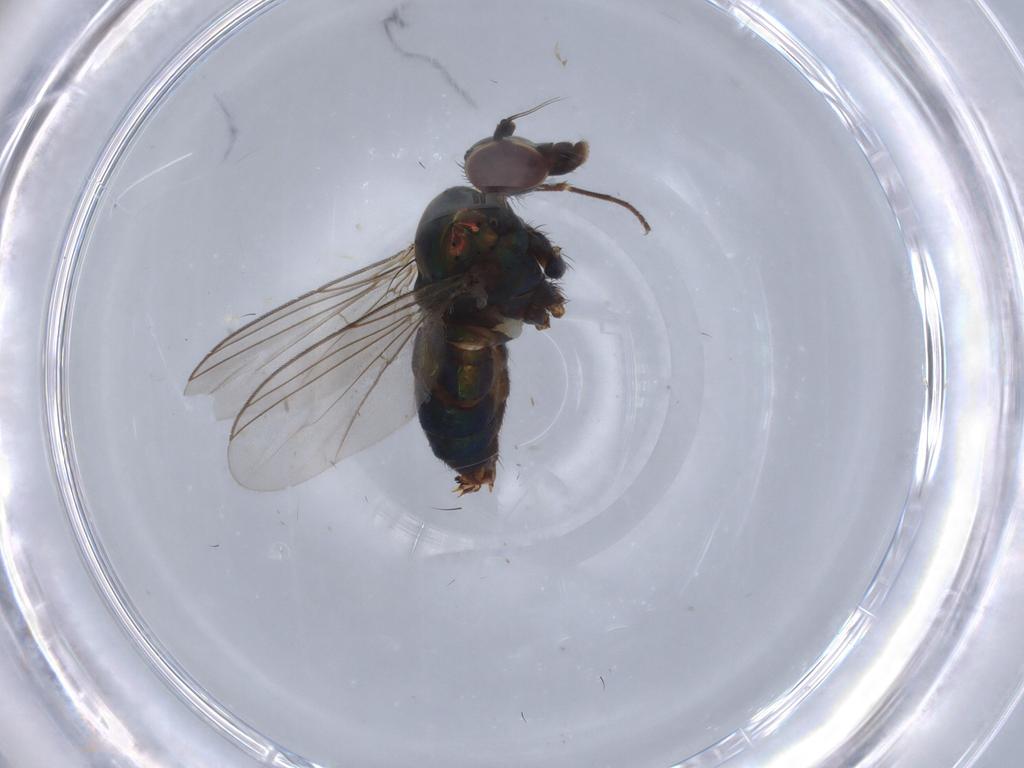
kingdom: Animalia
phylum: Arthropoda
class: Insecta
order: Diptera
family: Dolichopodidae
